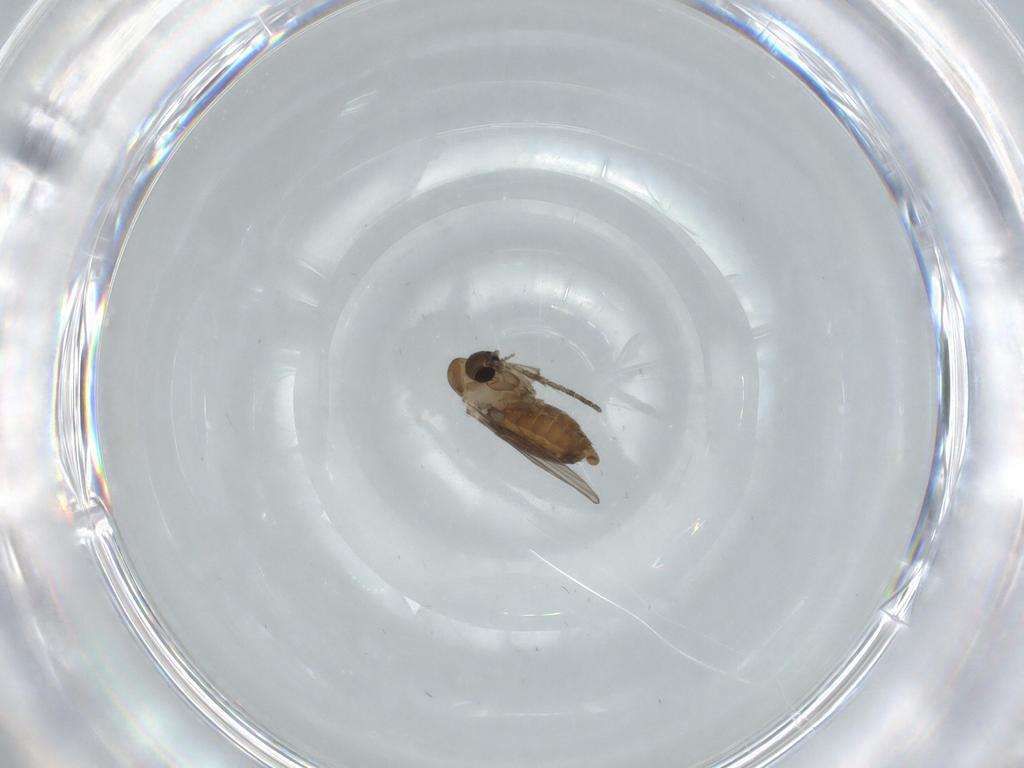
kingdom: Animalia
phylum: Arthropoda
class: Insecta
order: Diptera
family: Psychodidae
